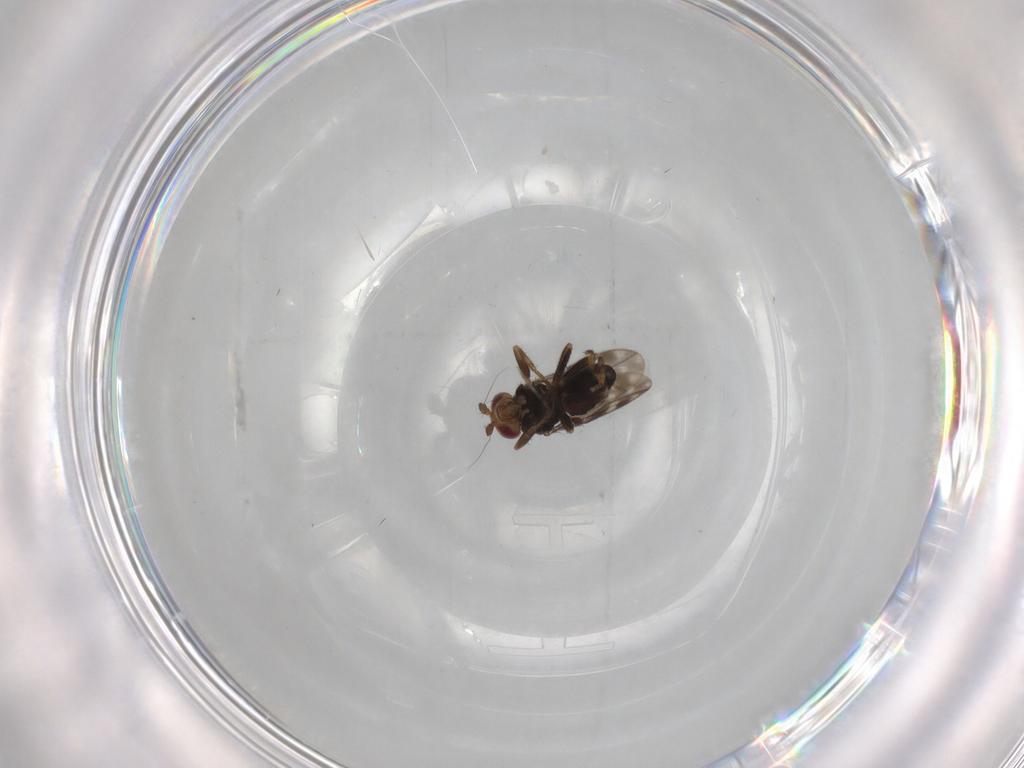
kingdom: Animalia
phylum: Arthropoda
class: Insecta
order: Diptera
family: Sphaeroceridae
